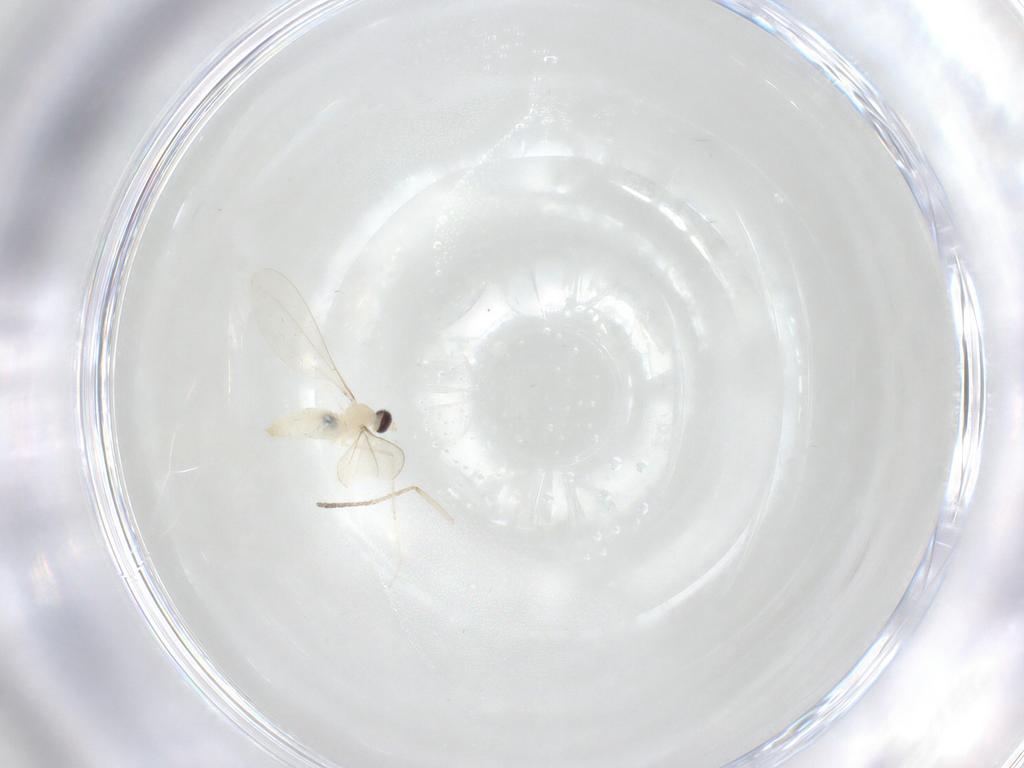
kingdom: Animalia
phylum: Arthropoda
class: Insecta
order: Diptera
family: Cecidomyiidae
